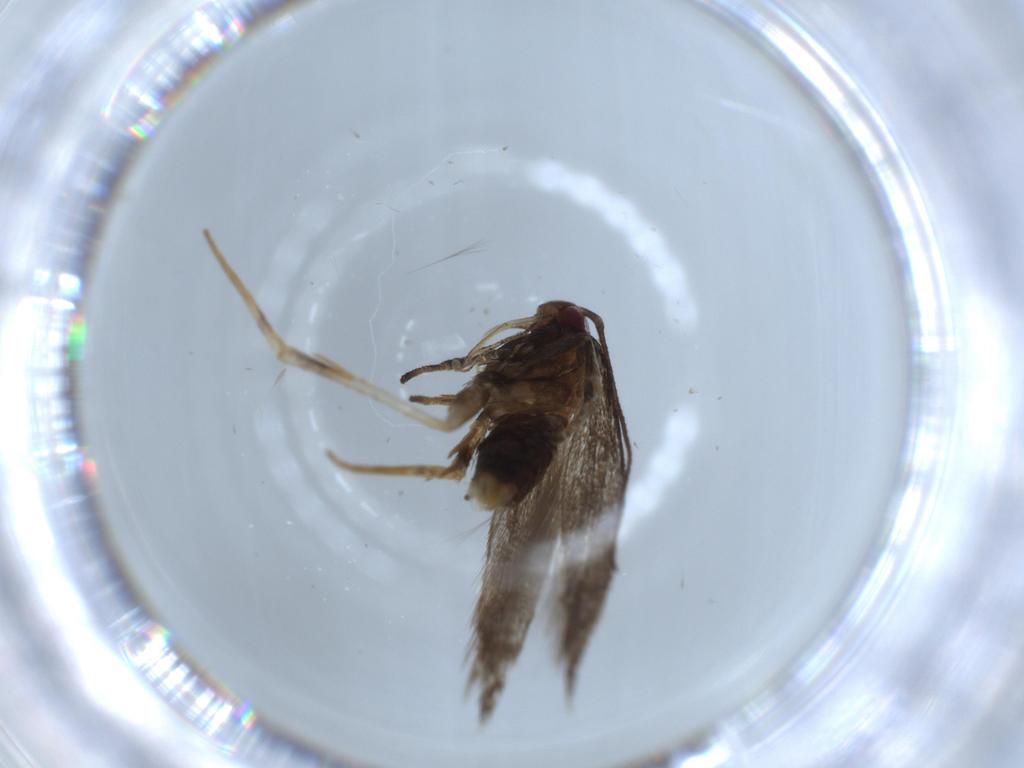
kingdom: Animalia
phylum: Arthropoda
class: Insecta
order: Lepidoptera
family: Cosmopterigidae
